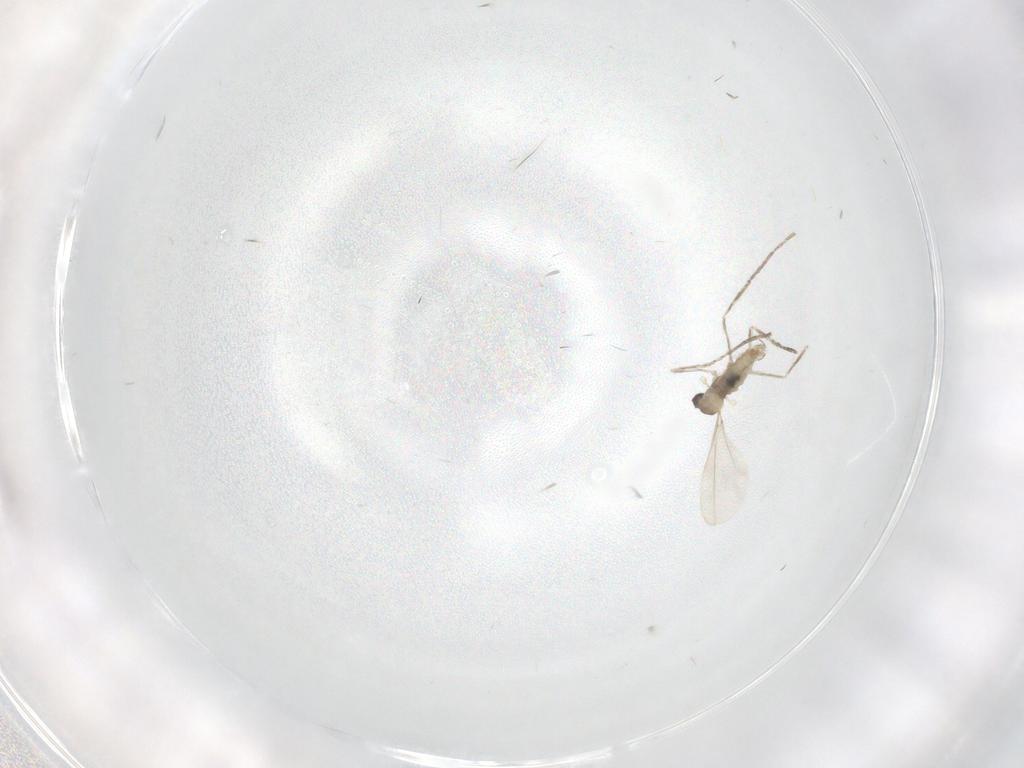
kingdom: Animalia
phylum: Arthropoda
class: Insecta
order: Diptera
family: Cecidomyiidae
